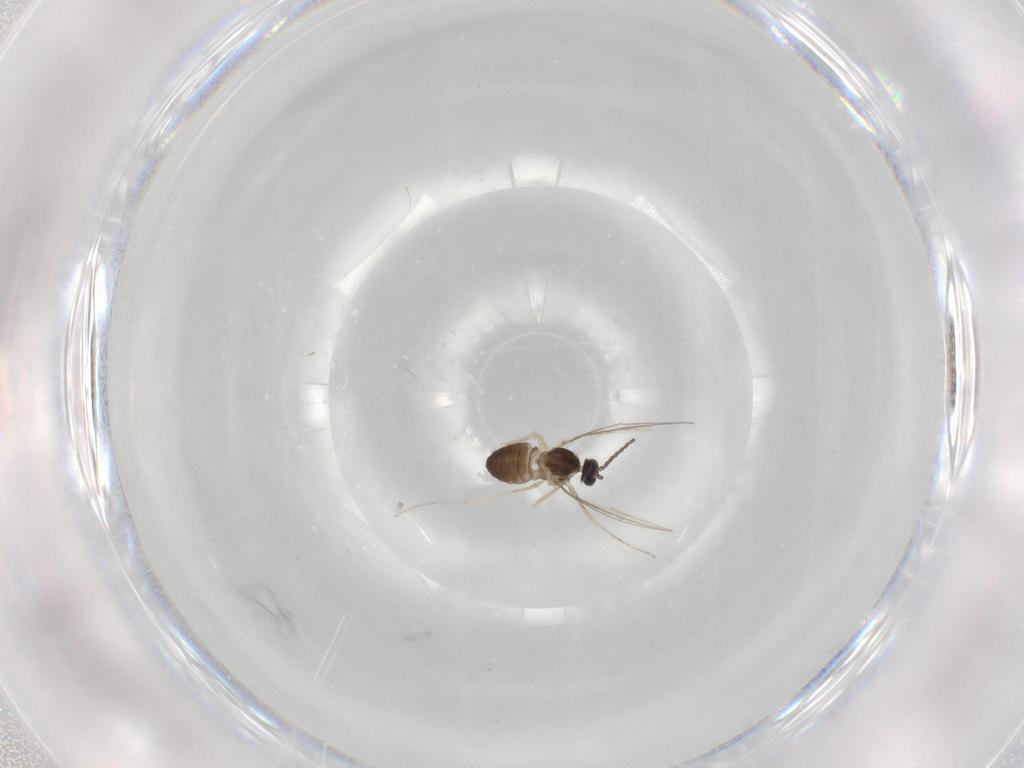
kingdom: Animalia
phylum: Arthropoda
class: Insecta
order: Diptera
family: Cecidomyiidae
